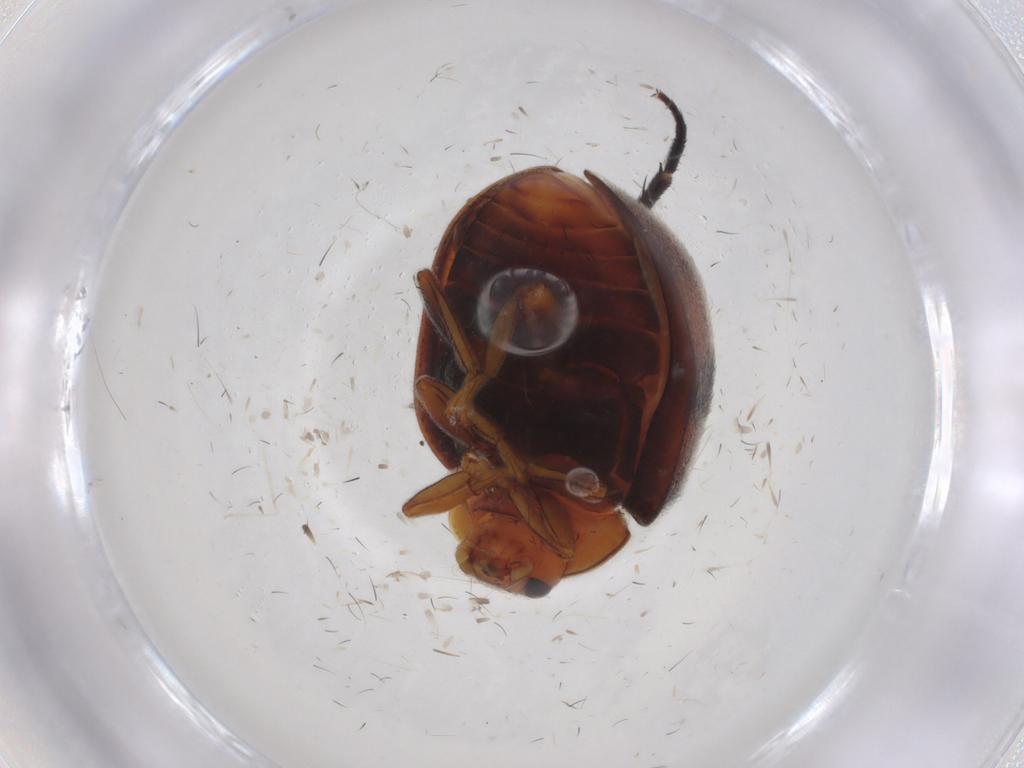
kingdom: Animalia
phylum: Arthropoda
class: Insecta
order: Coleoptera
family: Coccinellidae
